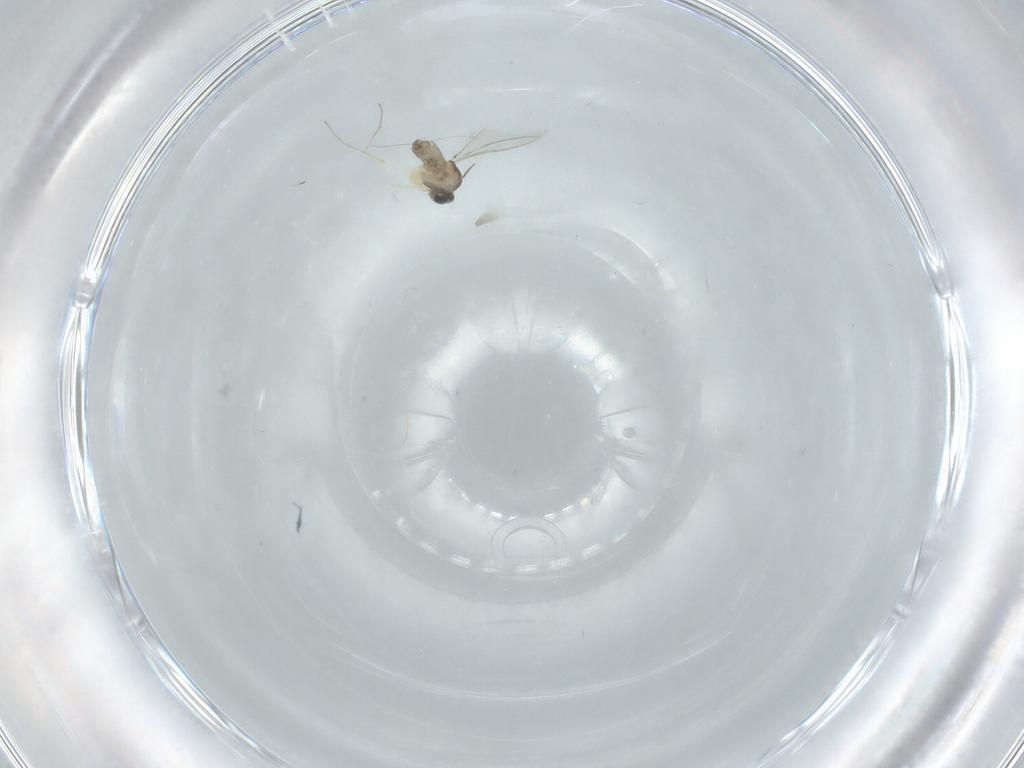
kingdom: Animalia
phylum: Arthropoda
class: Insecta
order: Diptera
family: Cecidomyiidae
